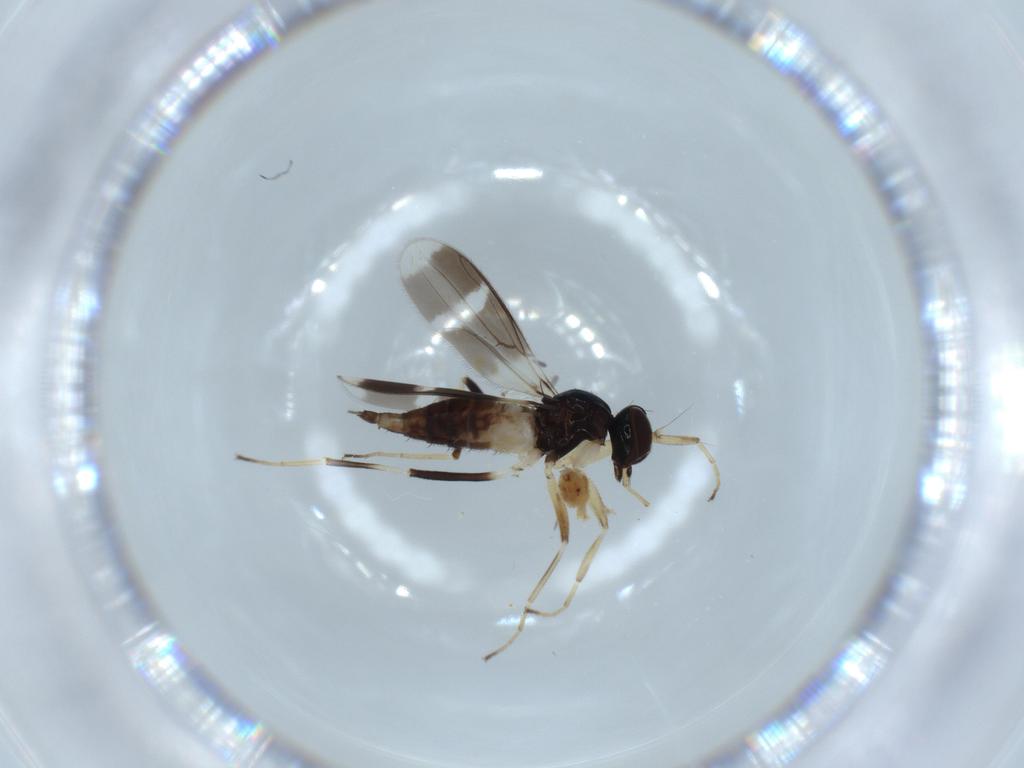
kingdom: Animalia
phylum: Arthropoda
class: Insecta
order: Diptera
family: Hybotidae
